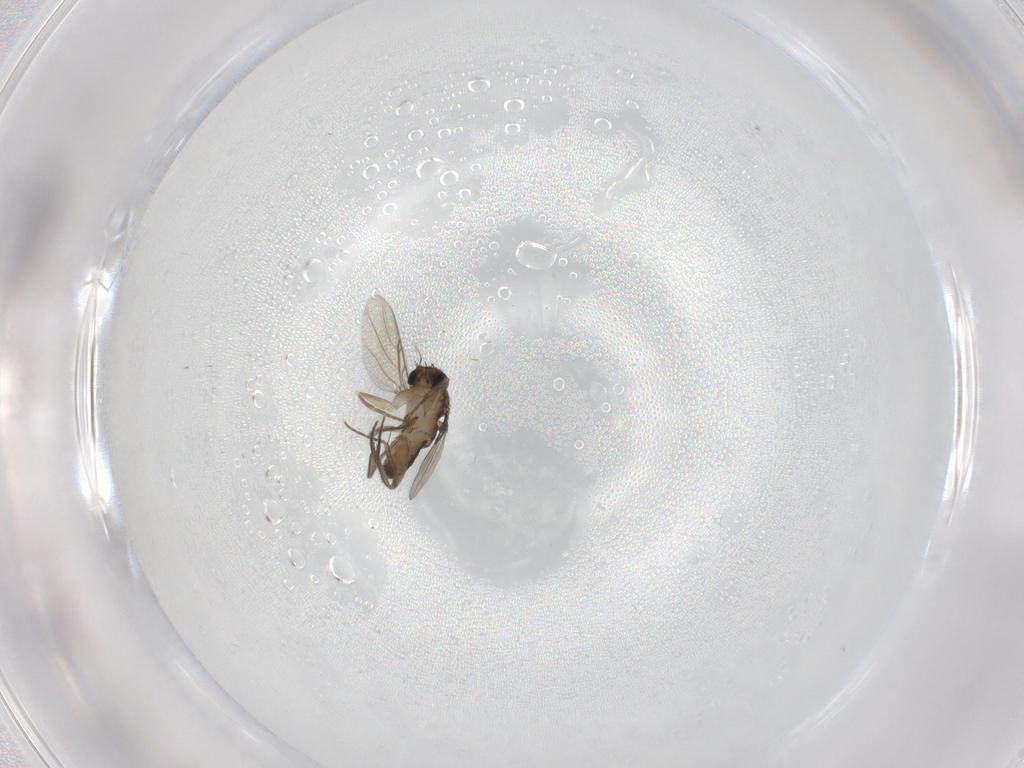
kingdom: Animalia
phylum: Arthropoda
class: Insecta
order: Diptera
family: Phoridae
